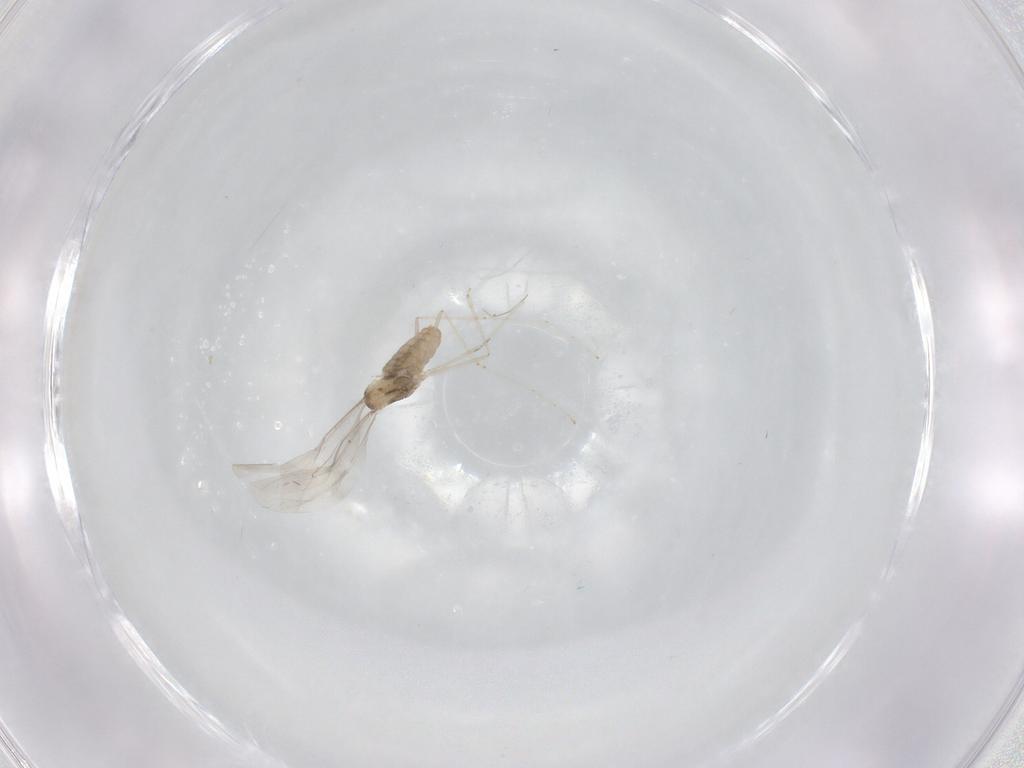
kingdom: Animalia
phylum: Arthropoda
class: Insecta
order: Diptera
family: Cecidomyiidae
